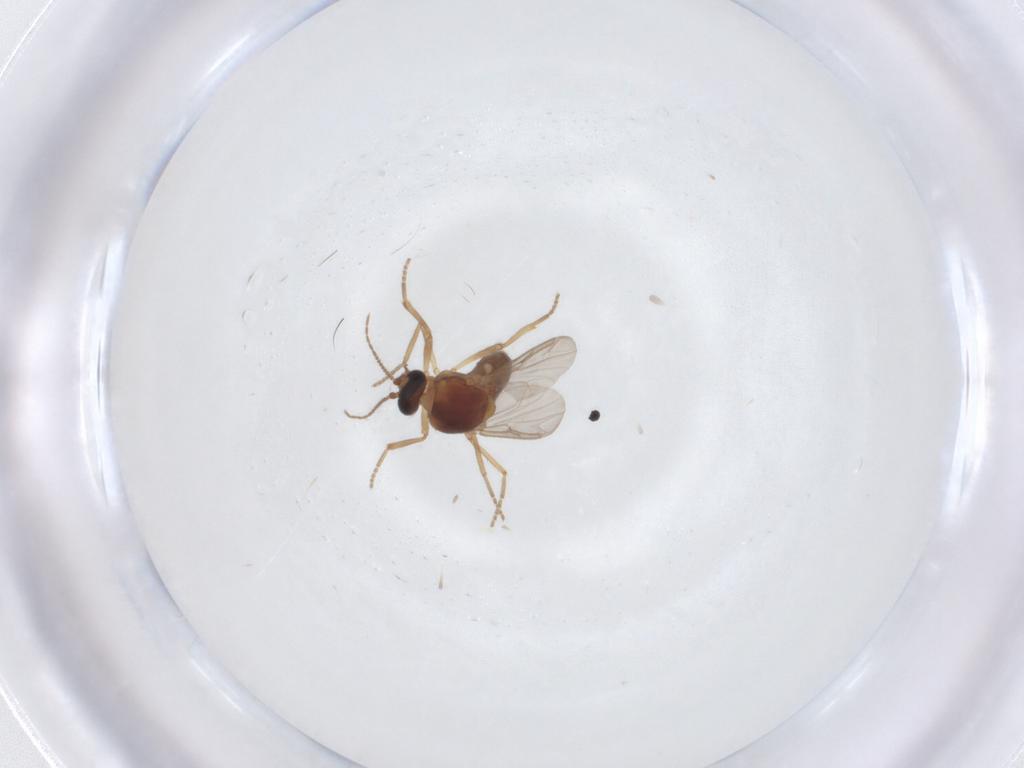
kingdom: Animalia
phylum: Arthropoda
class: Insecta
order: Diptera
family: Ceratopogonidae
